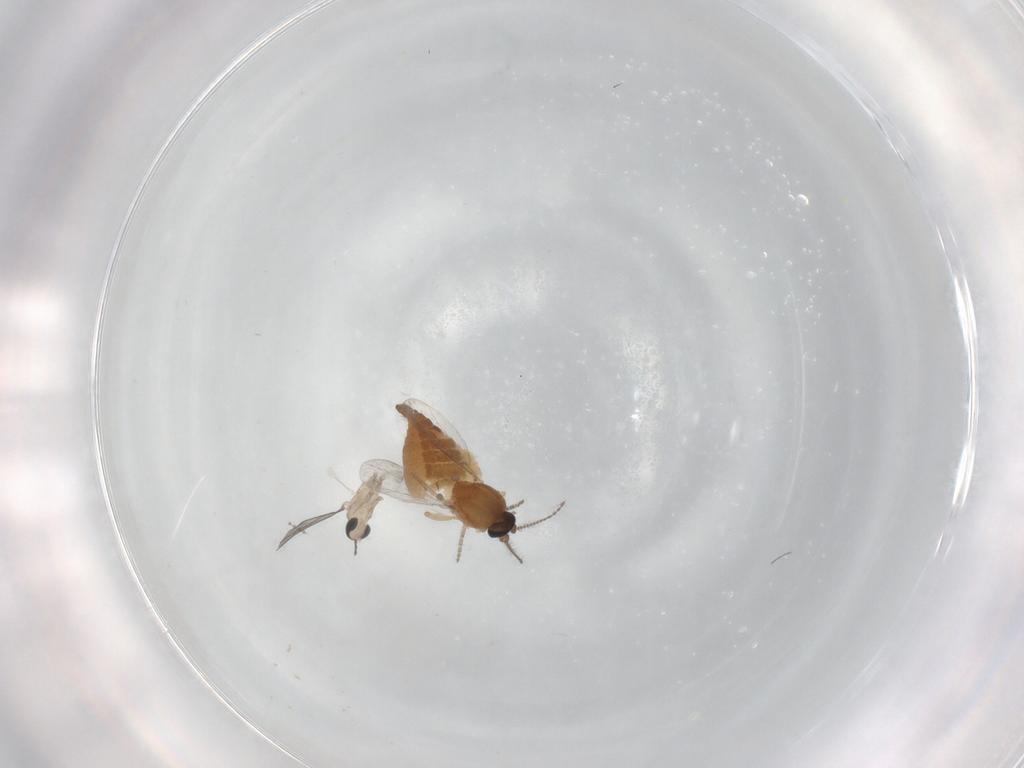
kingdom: Animalia
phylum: Arthropoda
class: Insecta
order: Diptera
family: Ceratopogonidae
